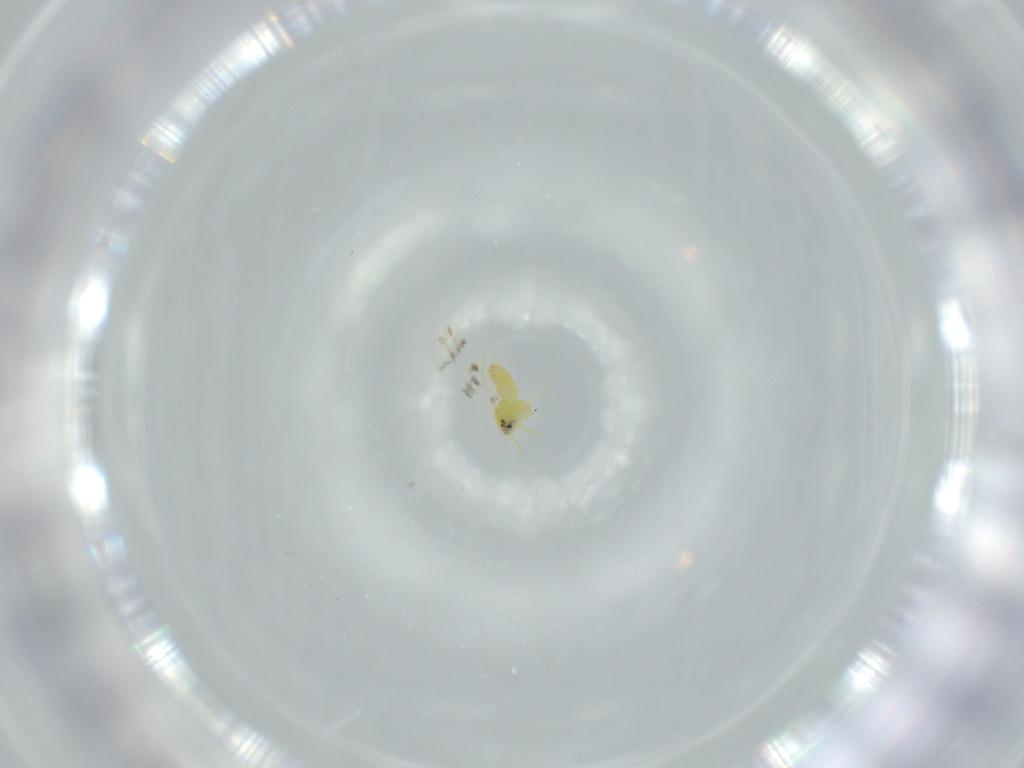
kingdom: Animalia
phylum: Arthropoda
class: Insecta
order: Hemiptera
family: Aleyrodidae
